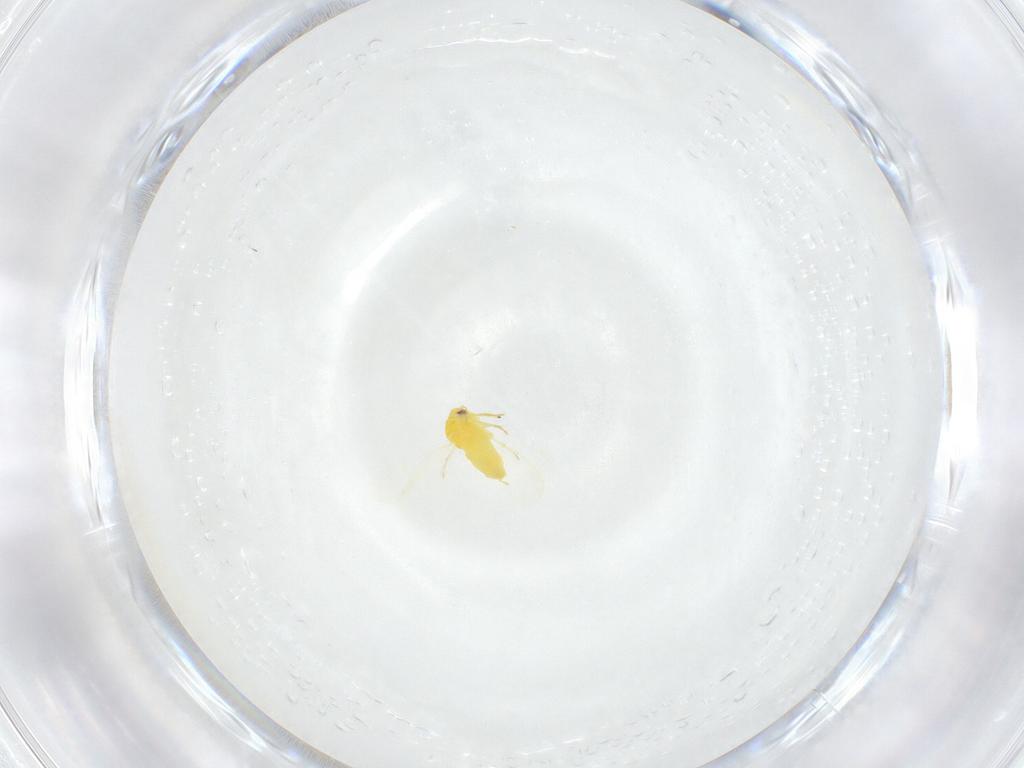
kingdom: Animalia
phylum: Arthropoda
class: Insecta
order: Hemiptera
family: Aleyrodidae
